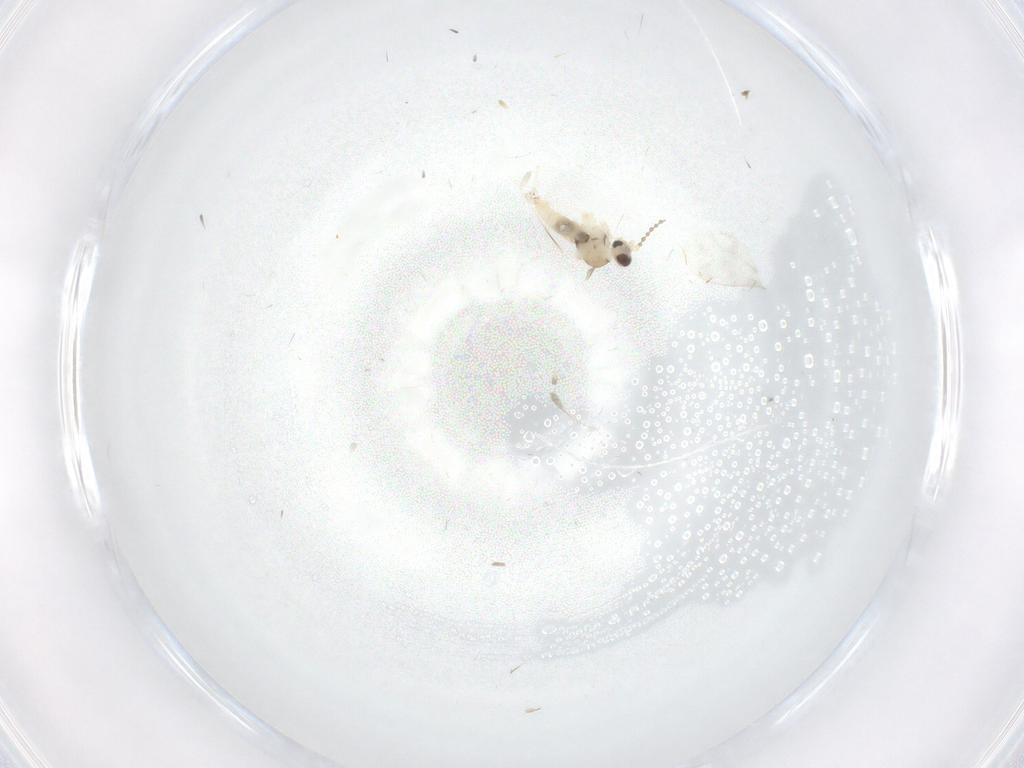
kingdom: Animalia
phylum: Arthropoda
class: Insecta
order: Diptera
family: Cecidomyiidae
